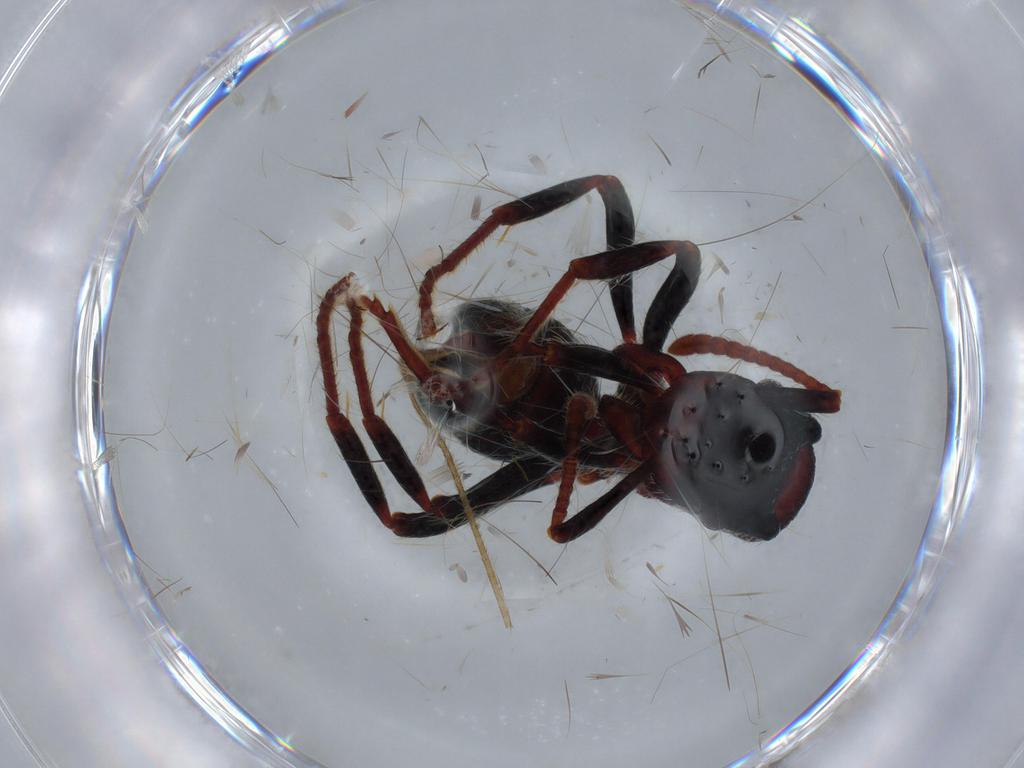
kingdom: Animalia
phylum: Arthropoda
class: Insecta
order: Hymenoptera
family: Formicidae
